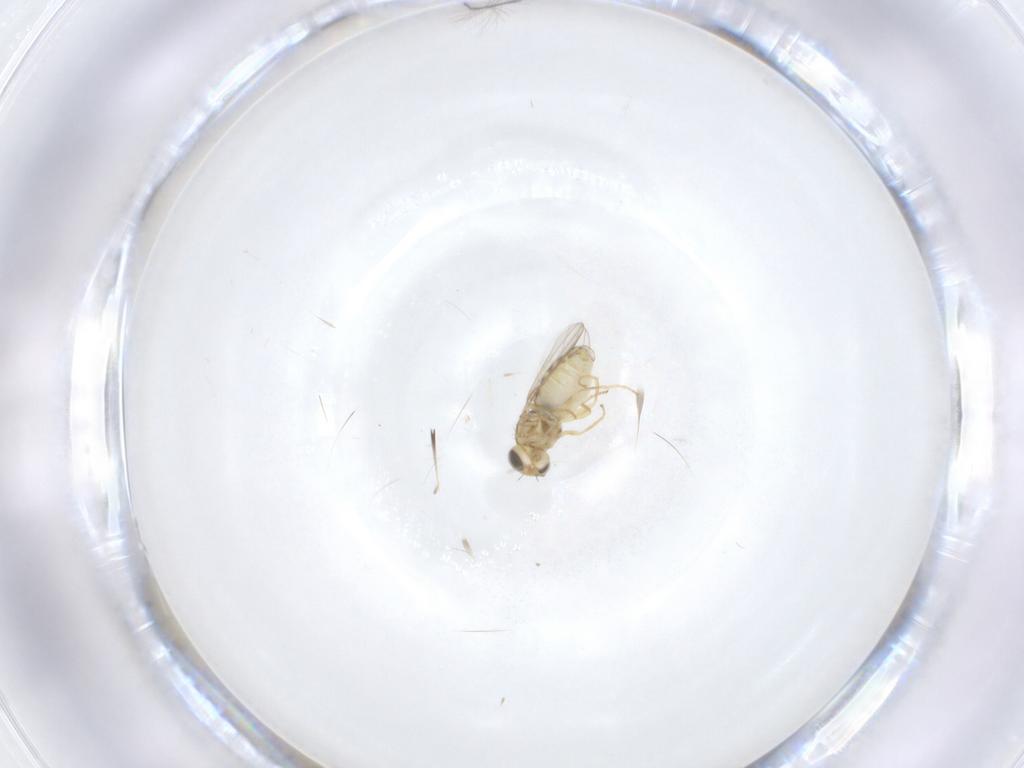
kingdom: Animalia
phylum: Arthropoda
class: Insecta
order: Diptera
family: Chyromyidae
